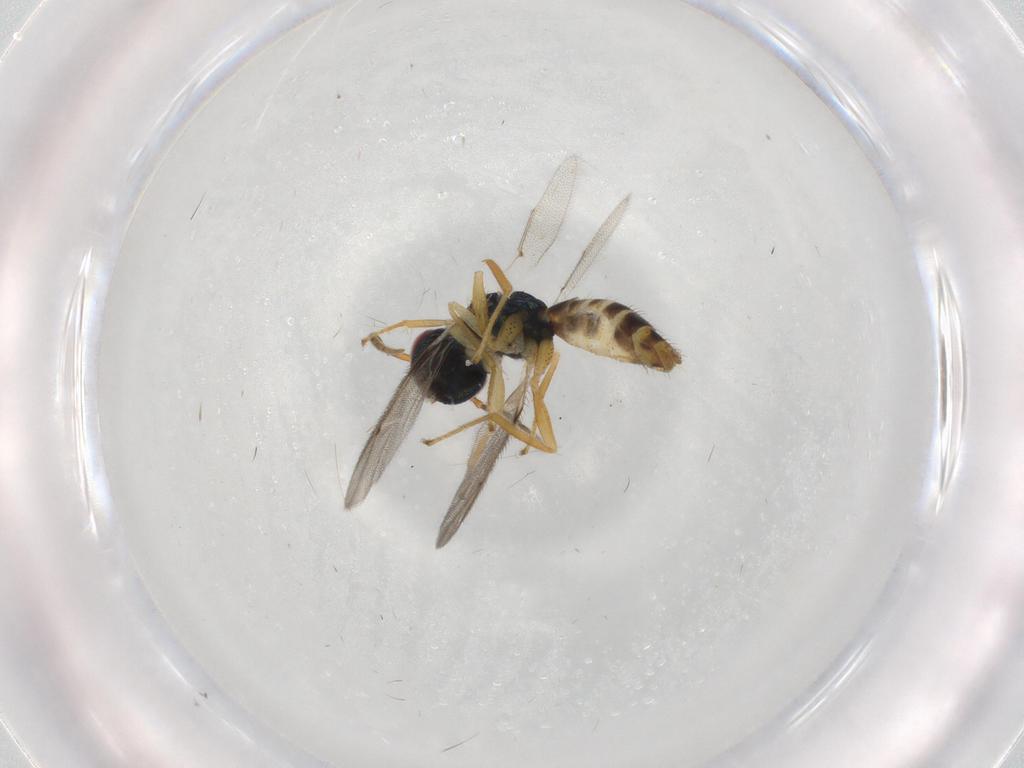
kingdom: Animalia
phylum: Arthropoda
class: Insecta
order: Hymenoptera
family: Pteromalidae
